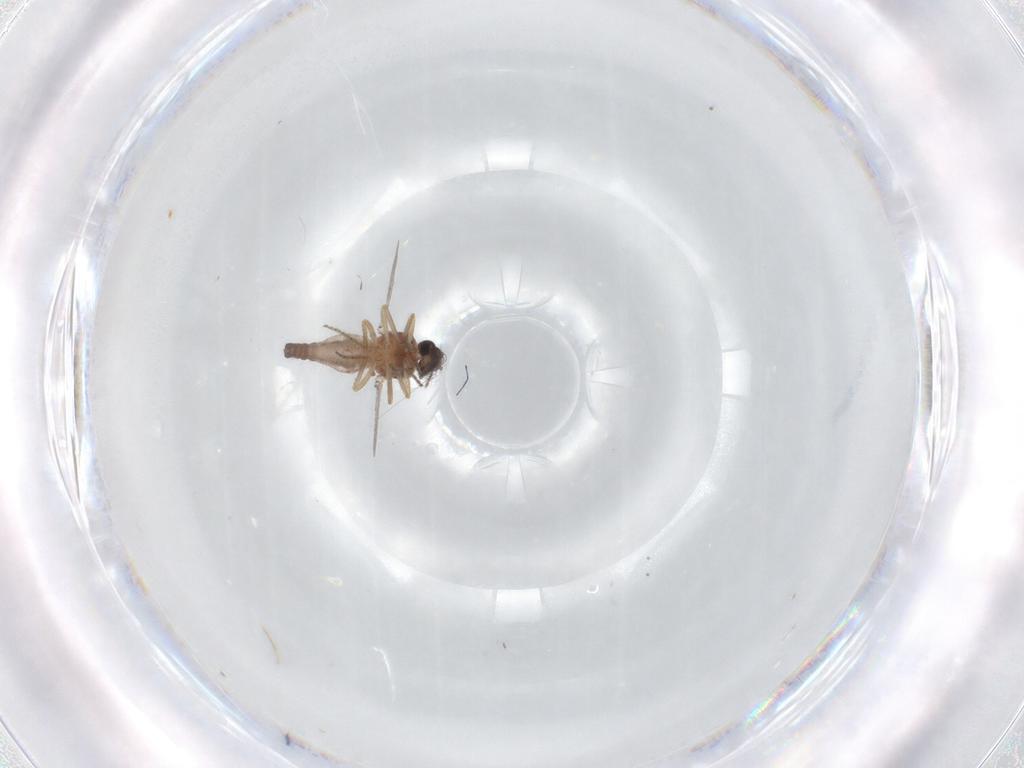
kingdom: Animalia
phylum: Arthropoda
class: Insecta
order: Diptera
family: Ceratopogonidae
